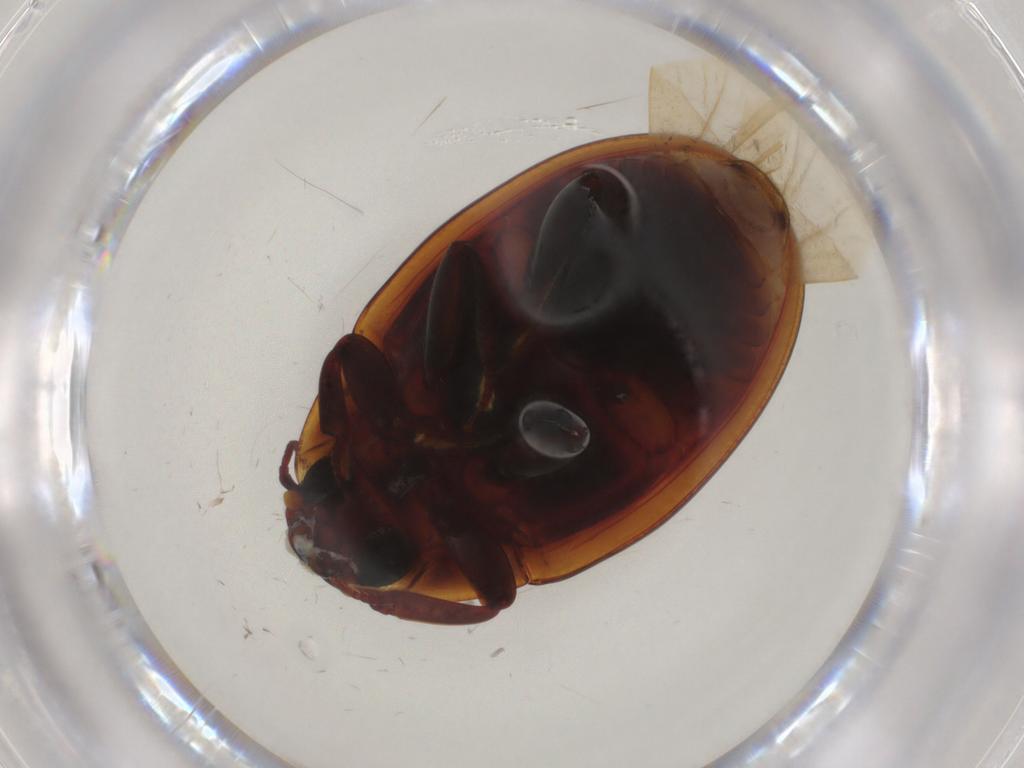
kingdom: Animalia
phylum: Arthropoda
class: Insecta
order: Coleoptera
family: Zopheridae
